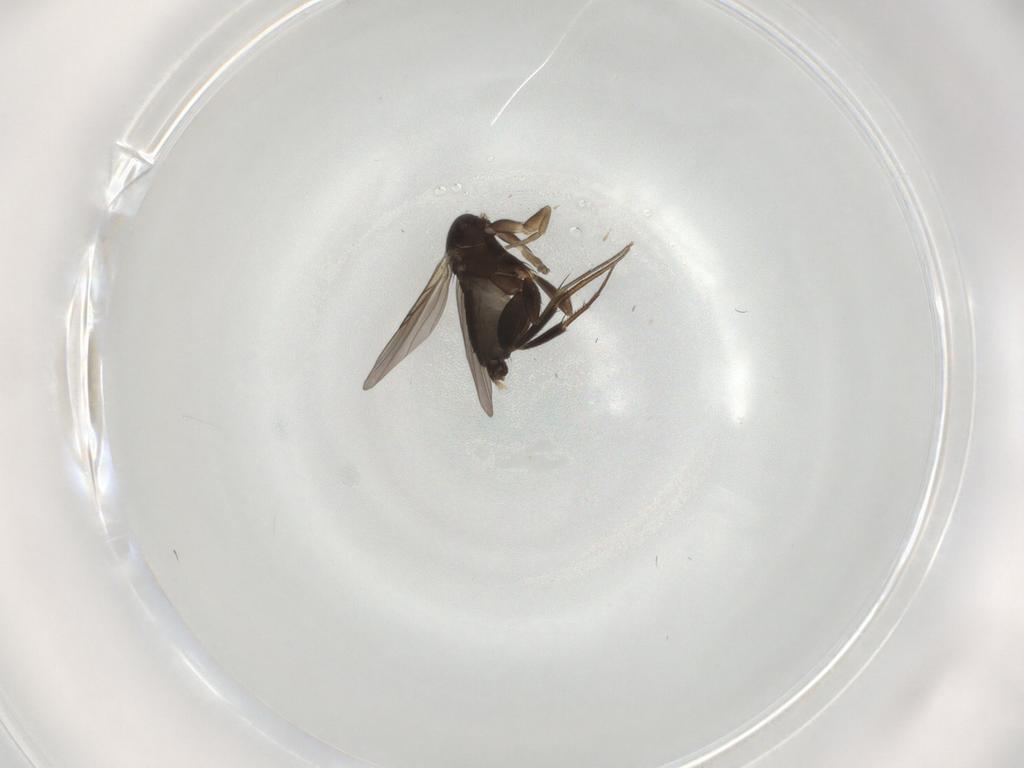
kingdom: Animalia
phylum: Arthropoda
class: Insecta
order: Diptera
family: Phoridae
